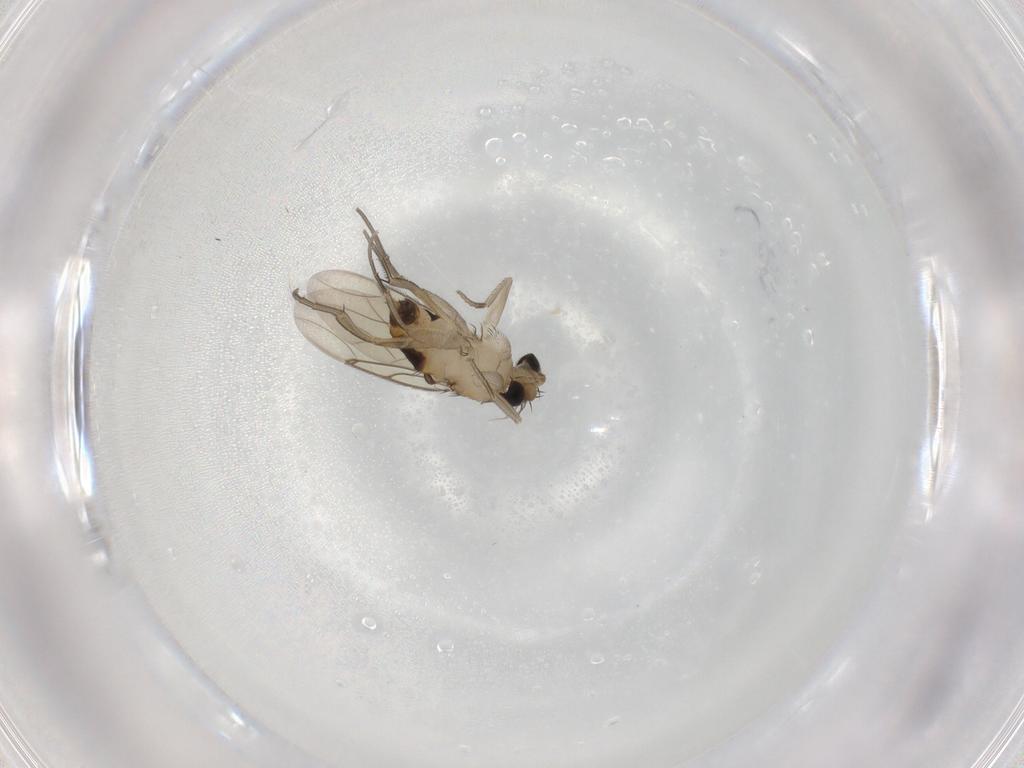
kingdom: Animalia
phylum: Arthropoda
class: Insecta
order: Diptera
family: Phoridae
